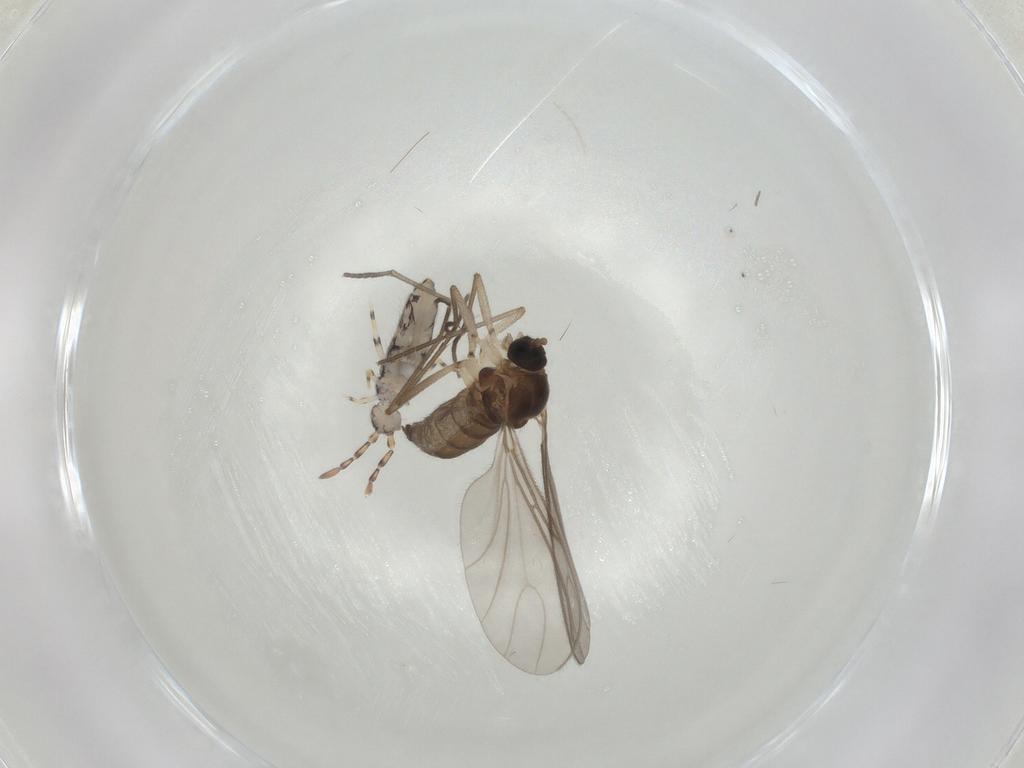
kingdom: Animalia
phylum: Arthropoda
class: Insecta
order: Diptera
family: Sciaridae
